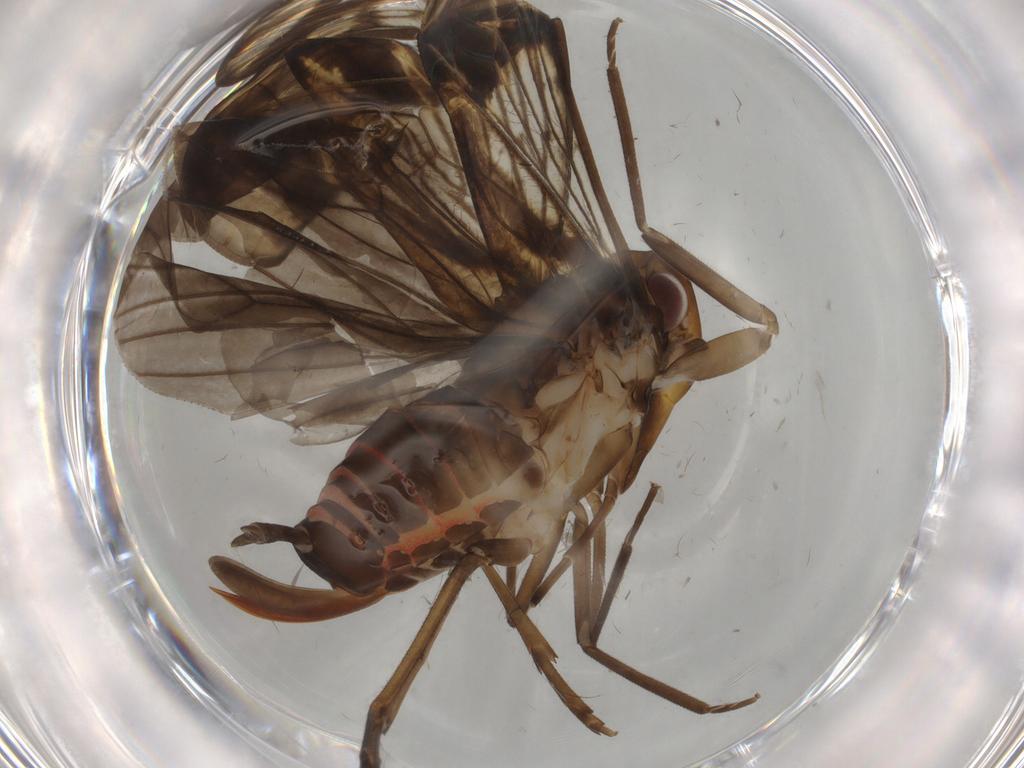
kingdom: Animalia
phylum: Arthropoda
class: Insecta
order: Hemiptera
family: Cixiidae
